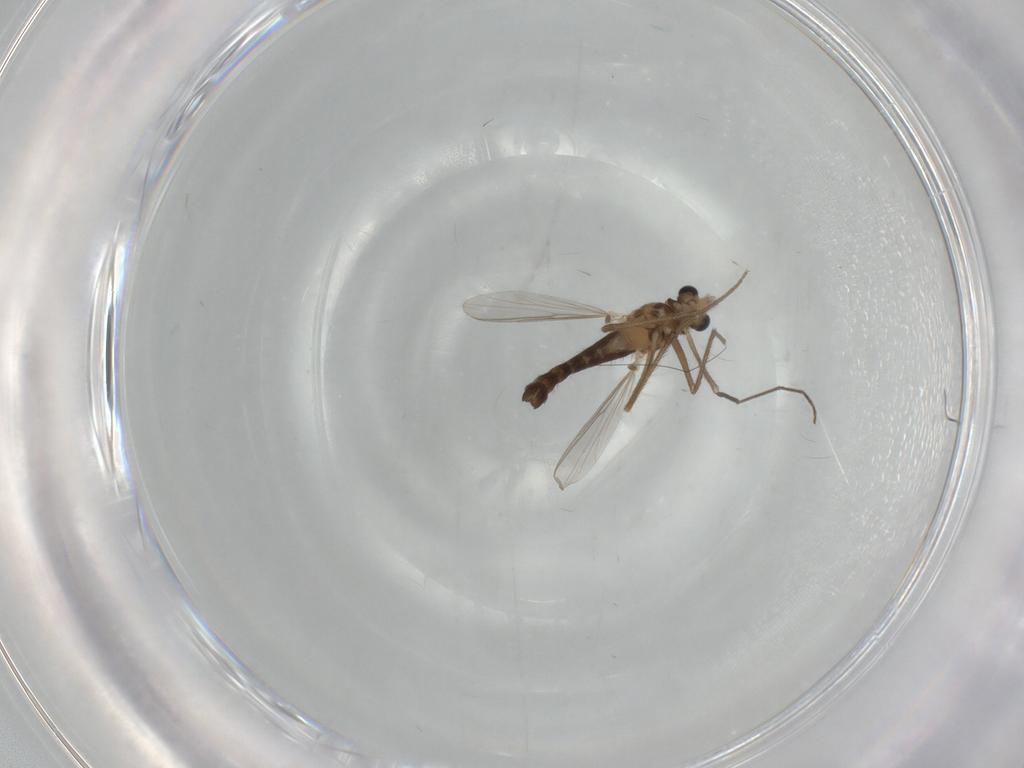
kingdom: Animalia
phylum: Arthropoda
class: Insecta
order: Diptera
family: Chironomidae
